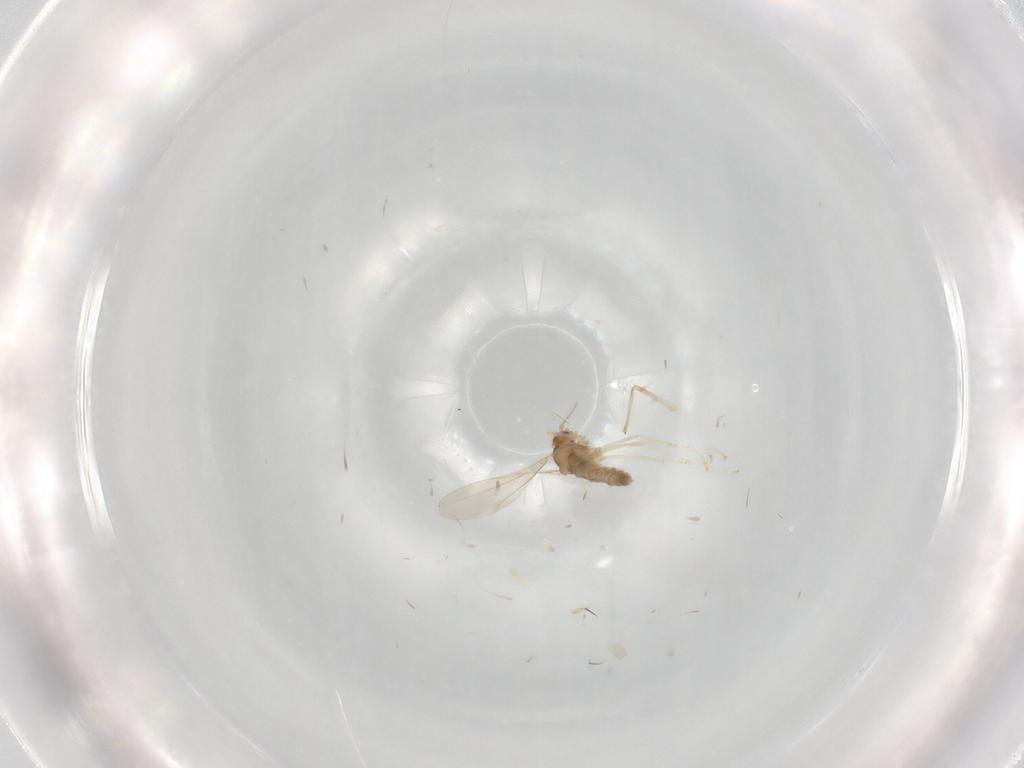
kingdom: Animalia
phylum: Arthropoda
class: Insecta
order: Diptera
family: Cecidomyiidae
